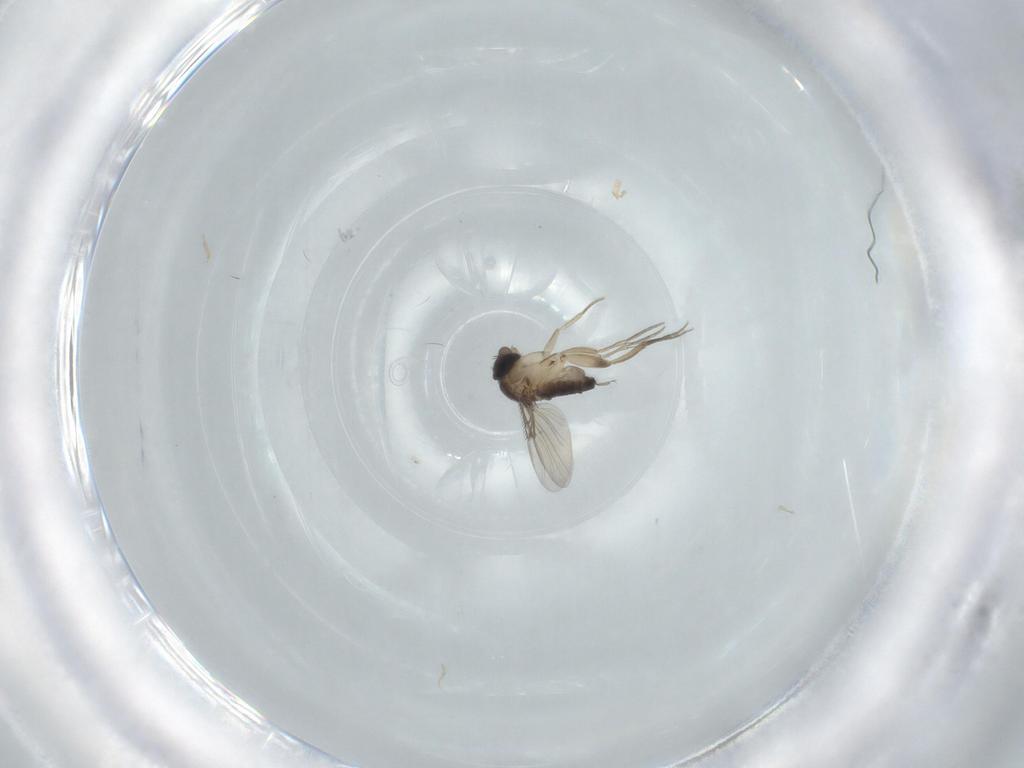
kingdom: Animalia
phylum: Arthropoda
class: Insecta
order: Diptera
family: Phoridae
